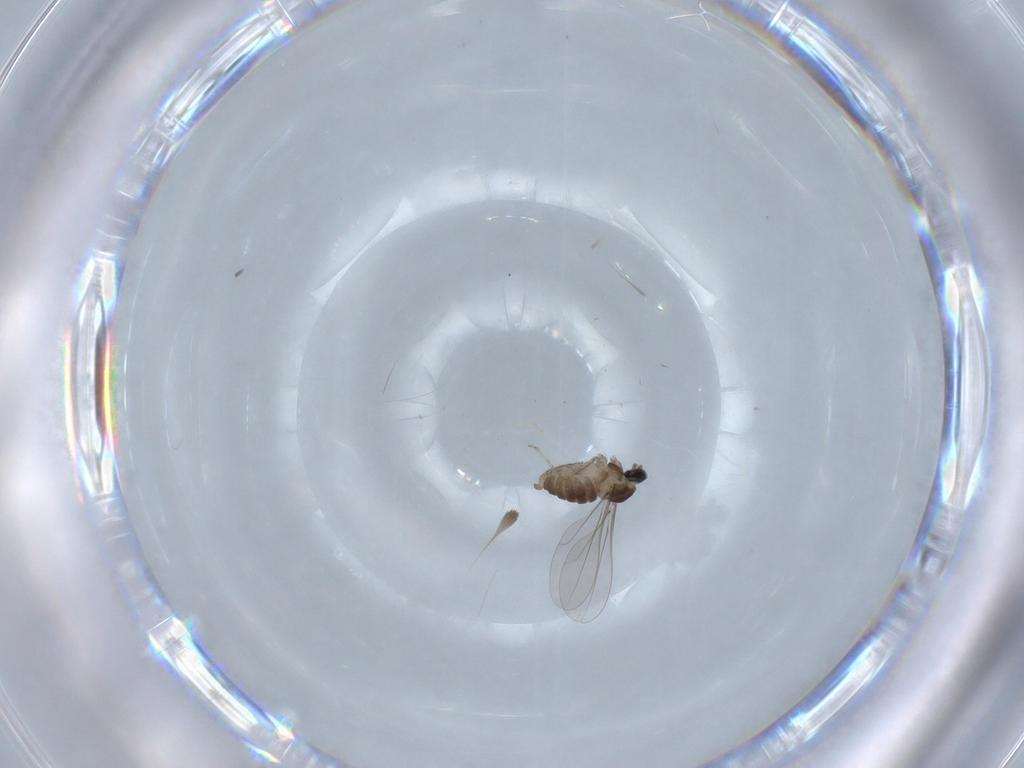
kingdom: Animalia
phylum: Arthropoda
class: Insecta
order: Diptera
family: Cecidomyiidae
